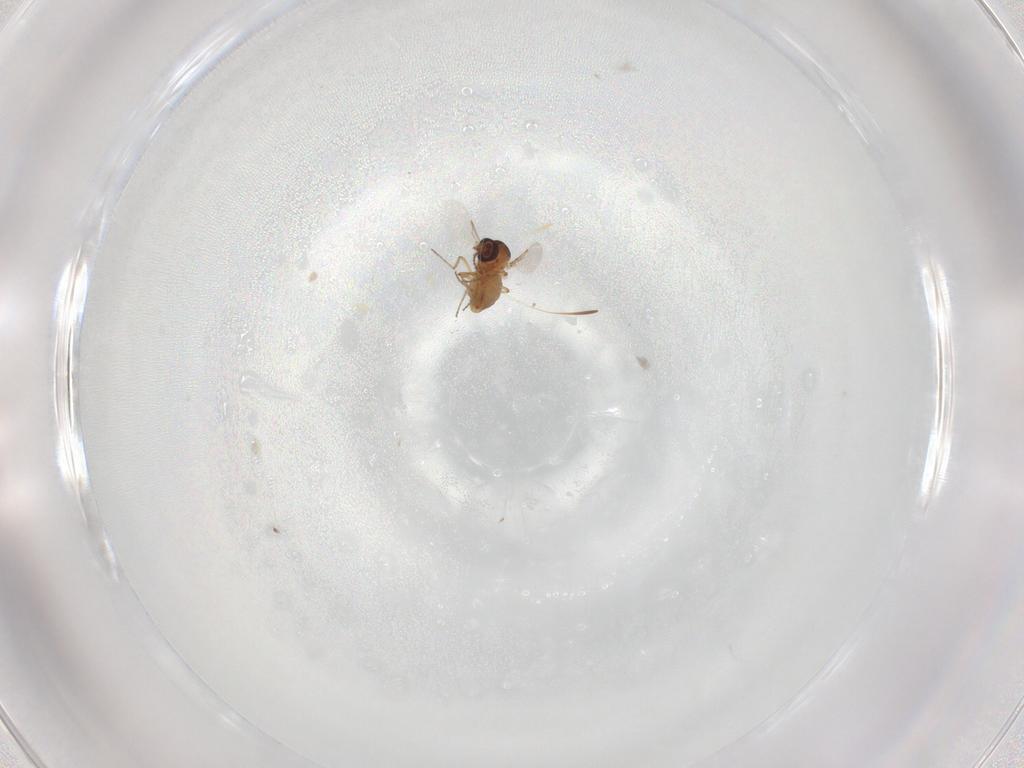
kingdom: Animalia
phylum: Arthropoda
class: Insecta
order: Diptera
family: Ceratopogonidae
